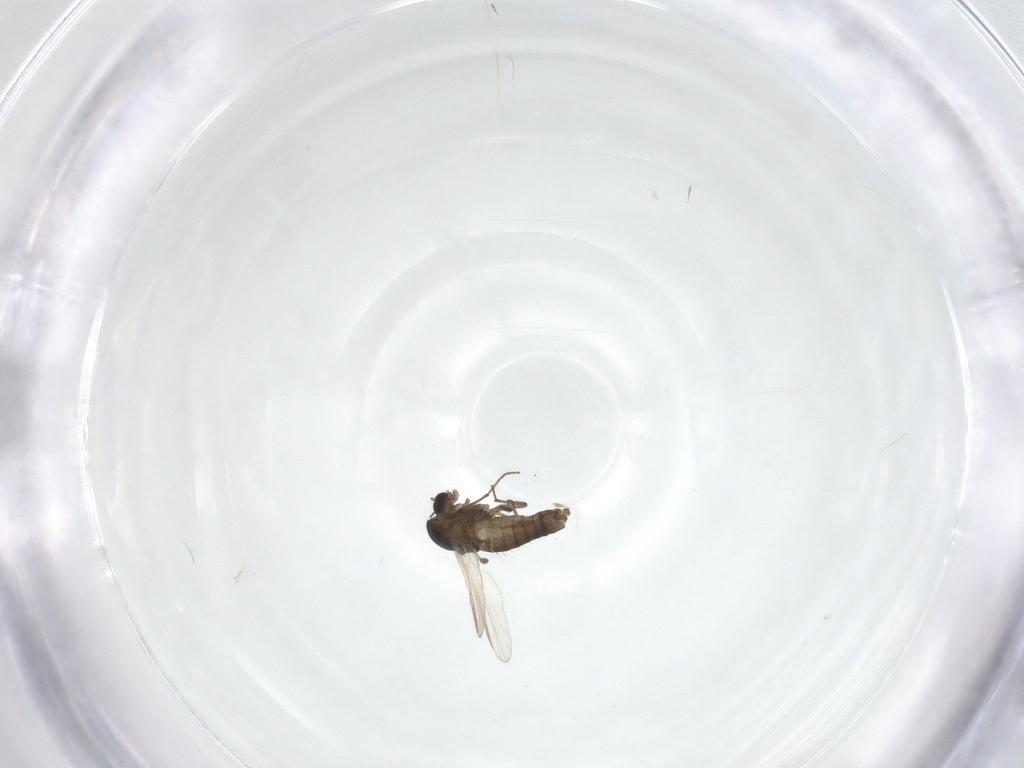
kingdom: Animalia
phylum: Arthropoda
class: Insecta
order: Diptera
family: Chironomidae
